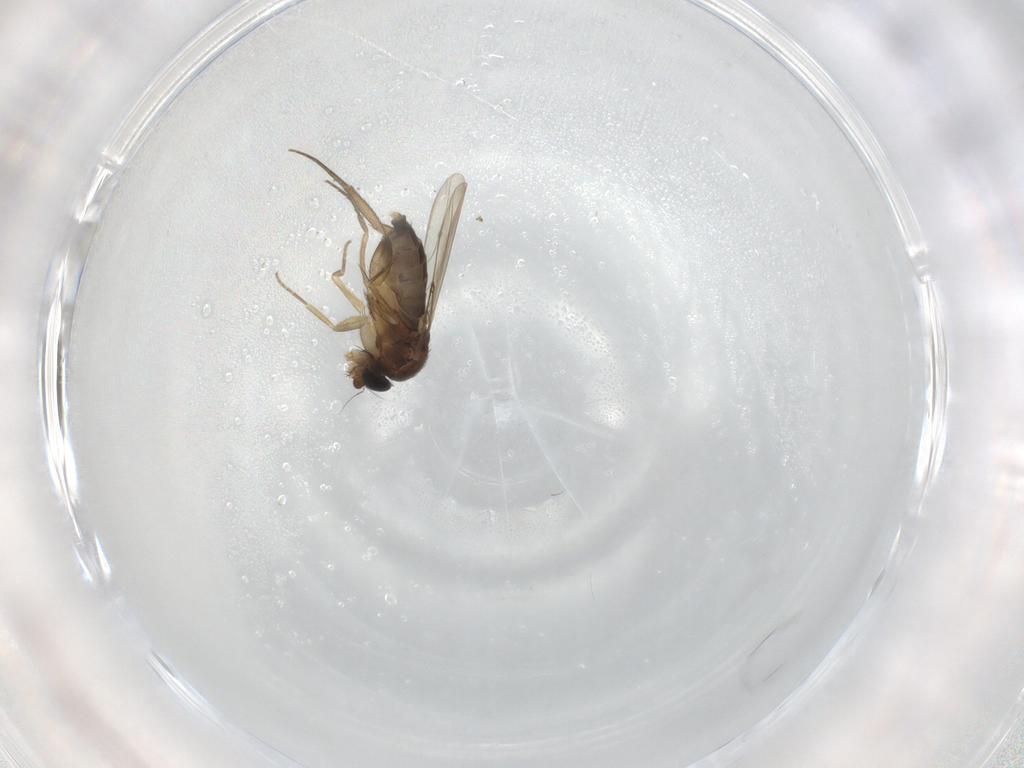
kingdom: Animalia
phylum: Arthropoda
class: Insecta
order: Diptera
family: Phoridae
